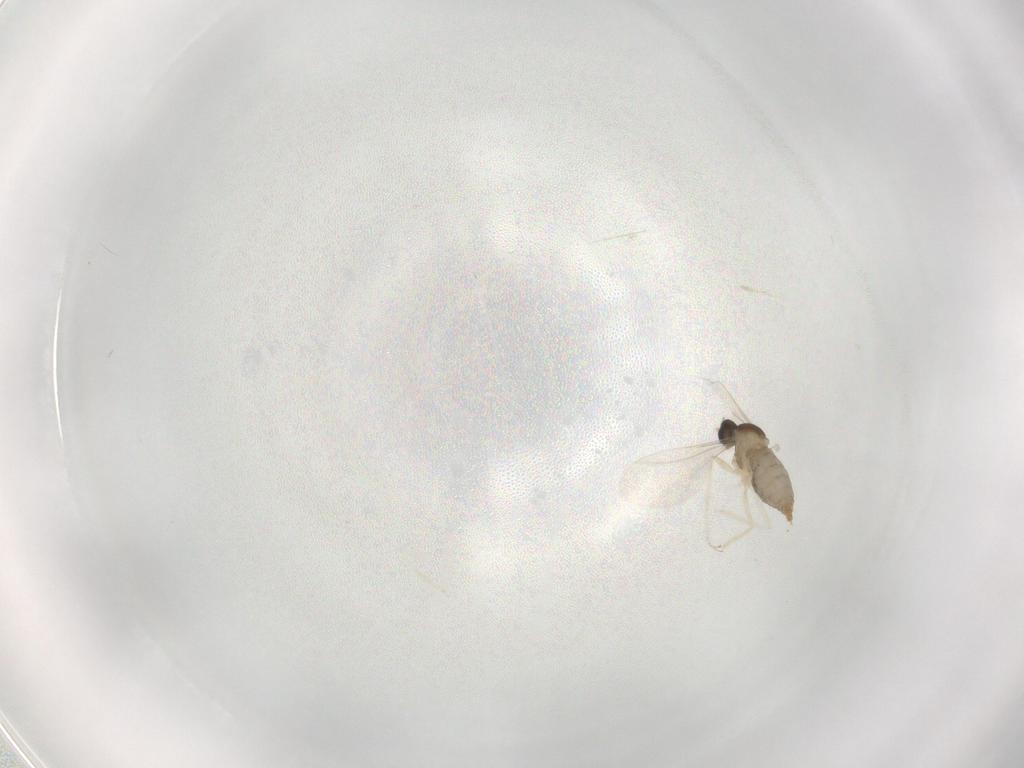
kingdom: Animalia
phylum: Arthropoda
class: Insecta
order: Diptera
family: Cecidomyiidae
